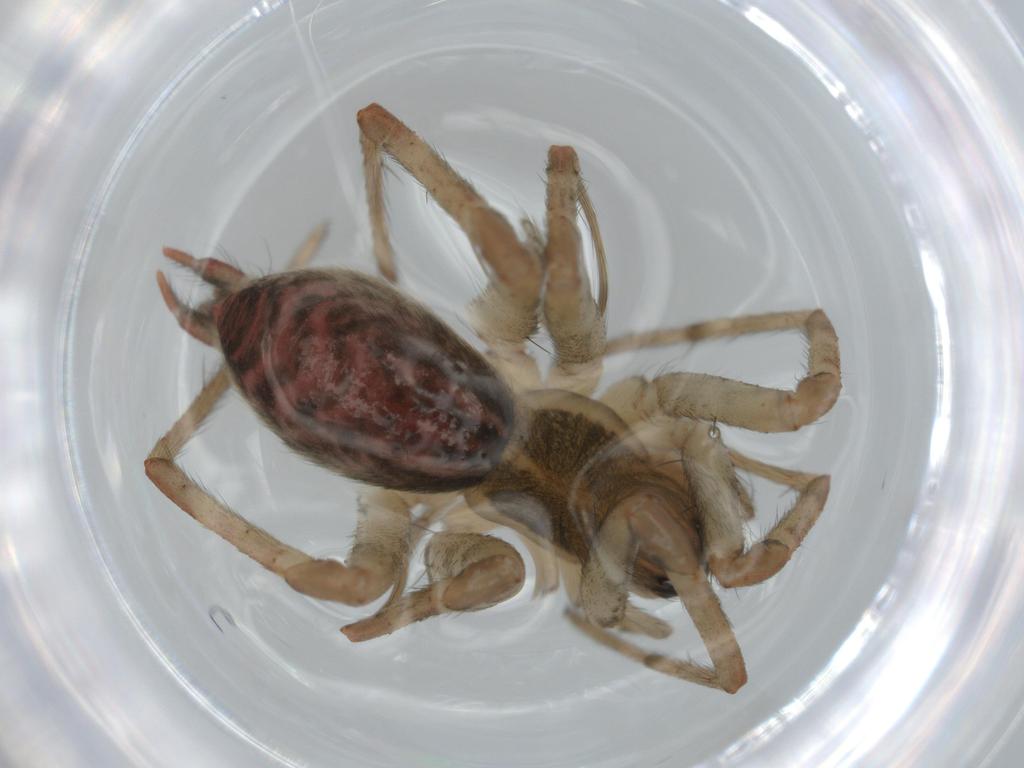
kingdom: Animalia
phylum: Arthropoda
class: Arachnida
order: Araneae
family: Agelenidae
